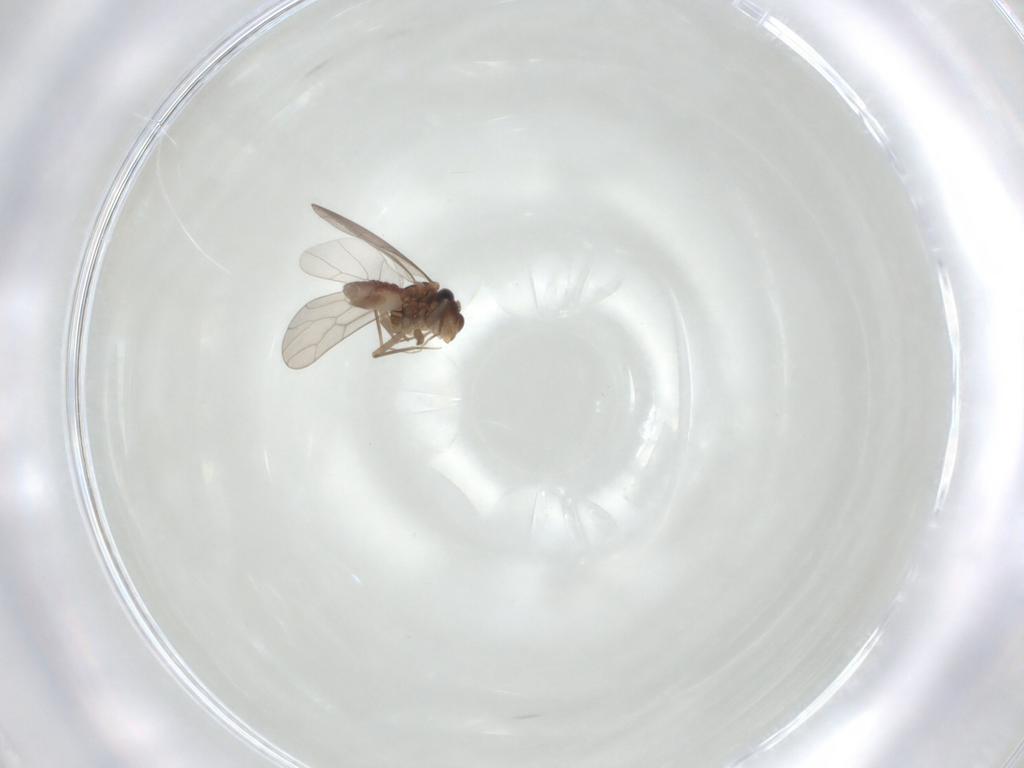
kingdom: Animalia
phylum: Arthropoda
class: Insecta
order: Psocodea
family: Lepidopsocidae
